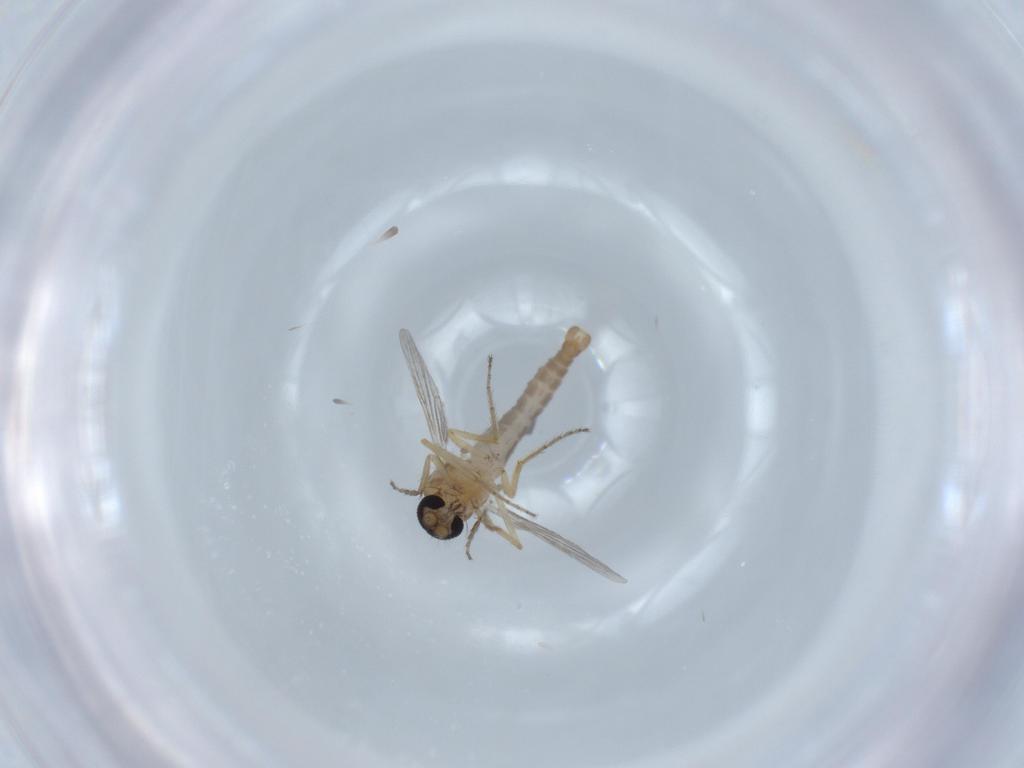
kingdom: Animalia
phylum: Arthropoda
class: Insecta
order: Diptera
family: Ceratopogonidae
